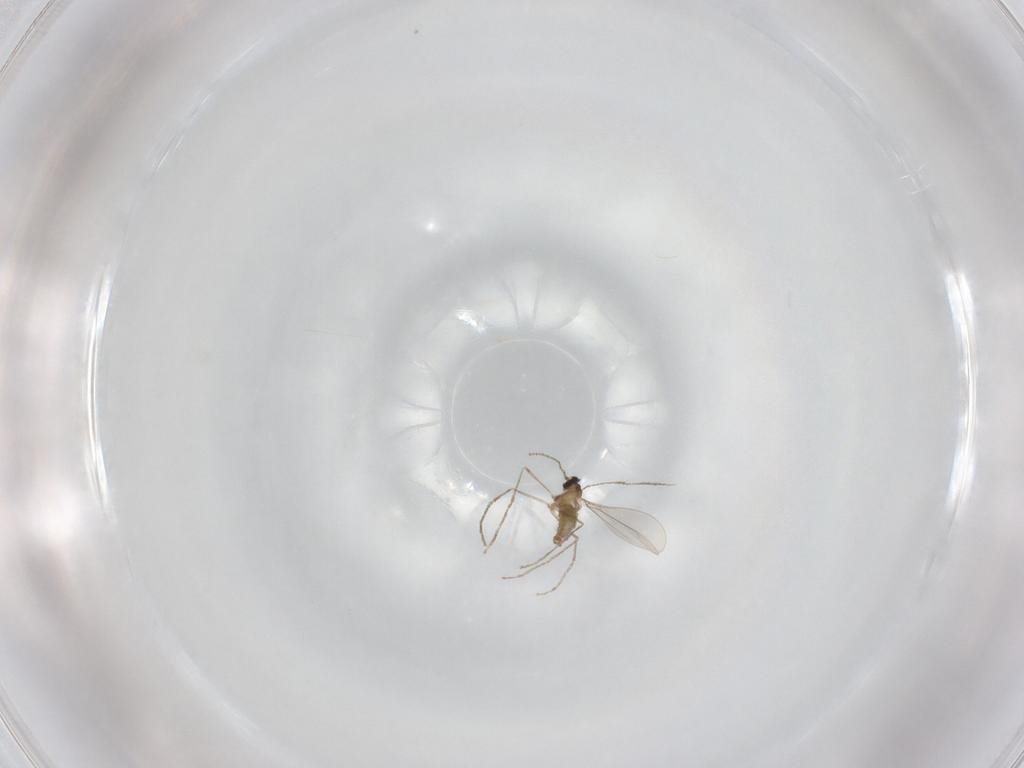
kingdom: Animalia
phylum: Arthropoda
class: Insecta
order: Diptera
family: Cecidomyiidae
